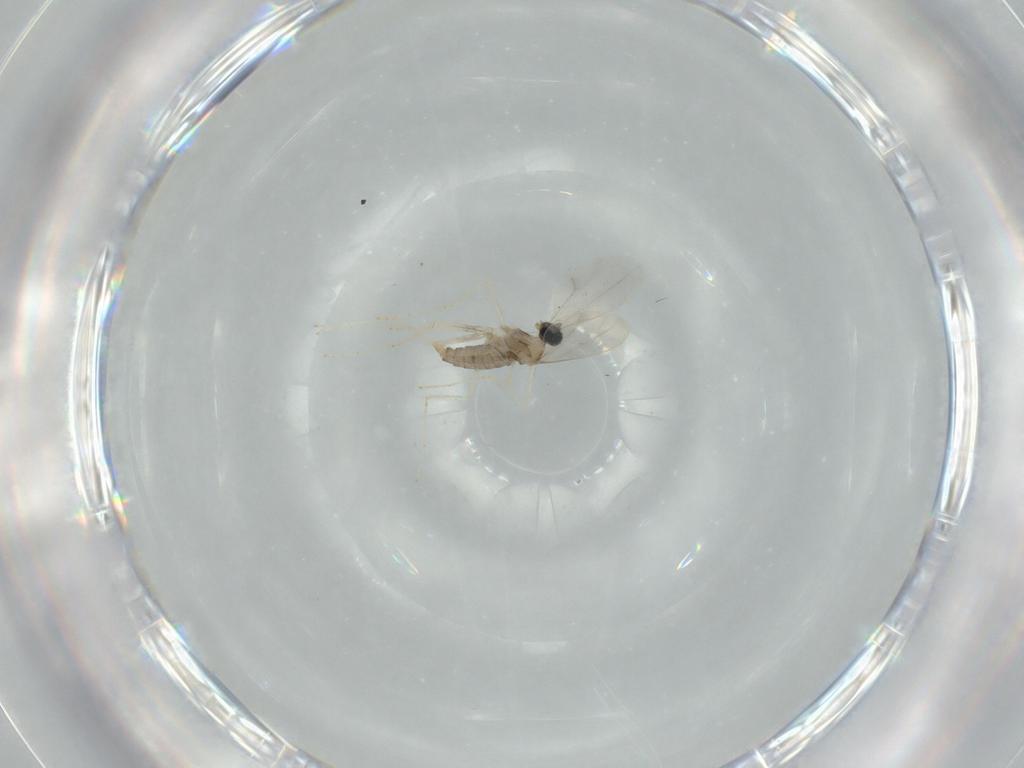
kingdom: Animalia
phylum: Arthropoda
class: Insecta
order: Diptera
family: Cecidomyiidae
